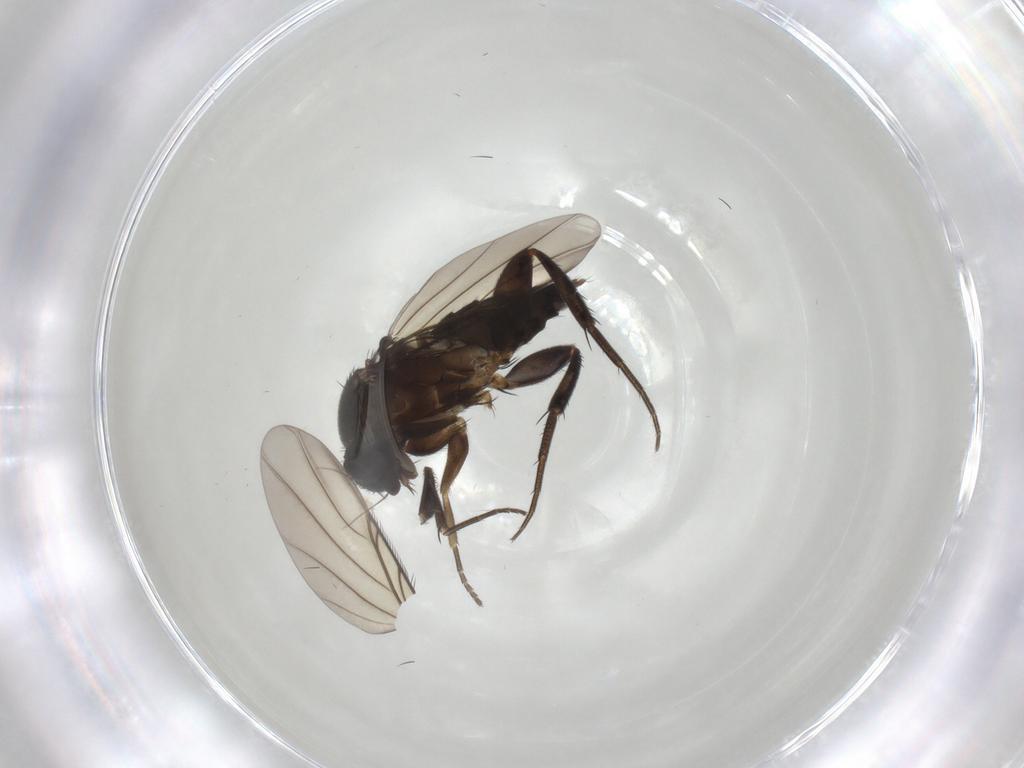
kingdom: Animalia
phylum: Arthropoda
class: Insecta
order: Diptera
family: Phoridae
